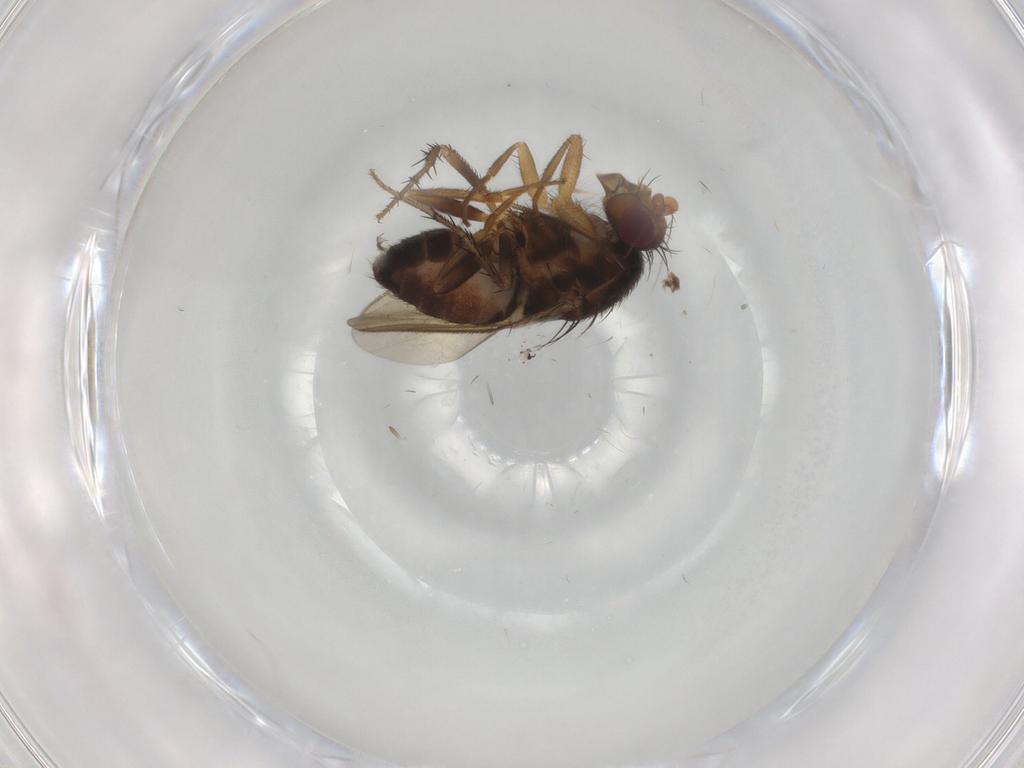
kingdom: Animalia
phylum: Arthropoda
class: Insecta
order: Diptera
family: Sphaeroceridae
